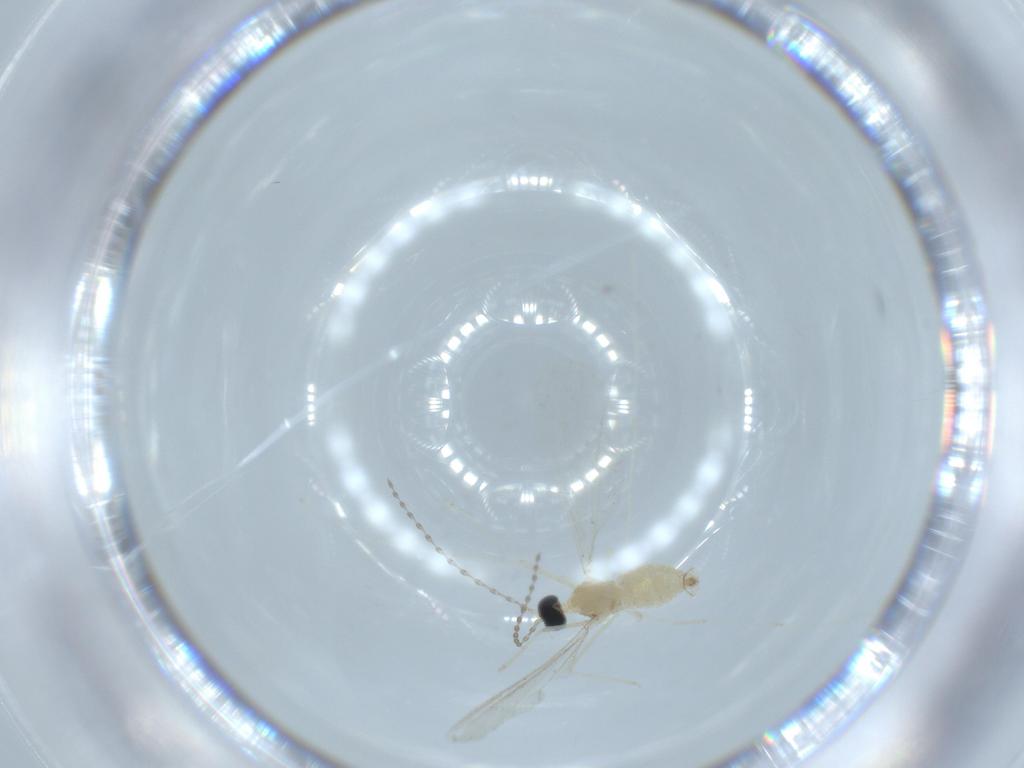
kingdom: Animalia
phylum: Arthropoda
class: Insecta
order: Diptera
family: Cecidomyiidae
